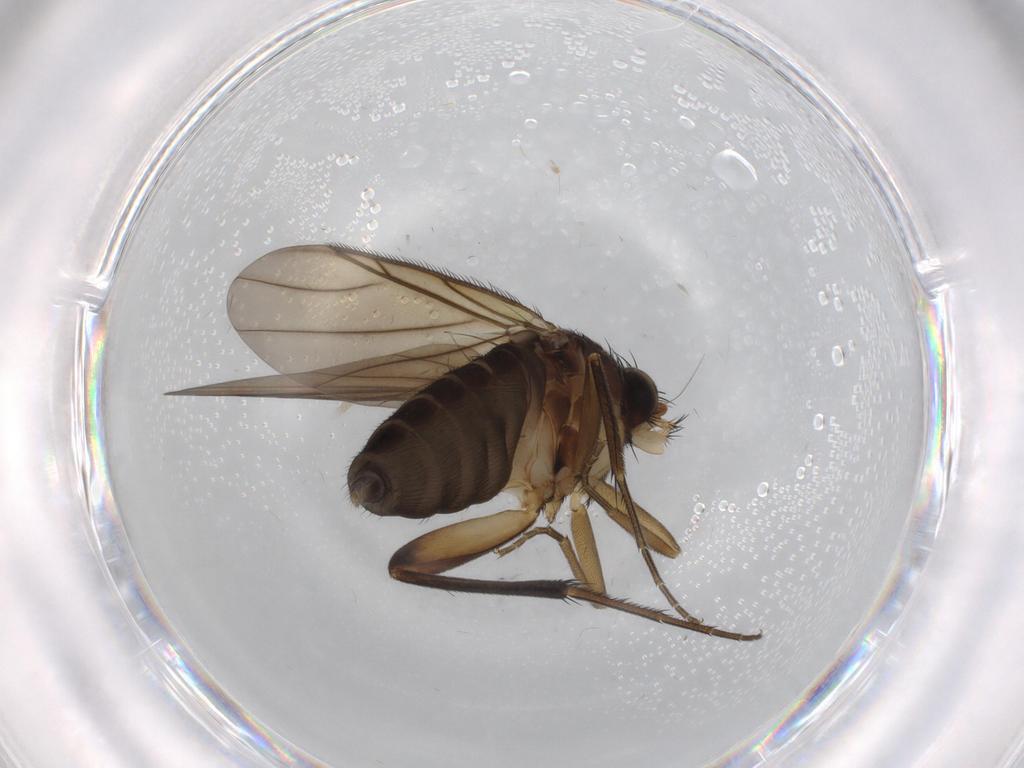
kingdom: Animalia
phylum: Arthropoda
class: Insecta
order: Diptera
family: Phoridae
